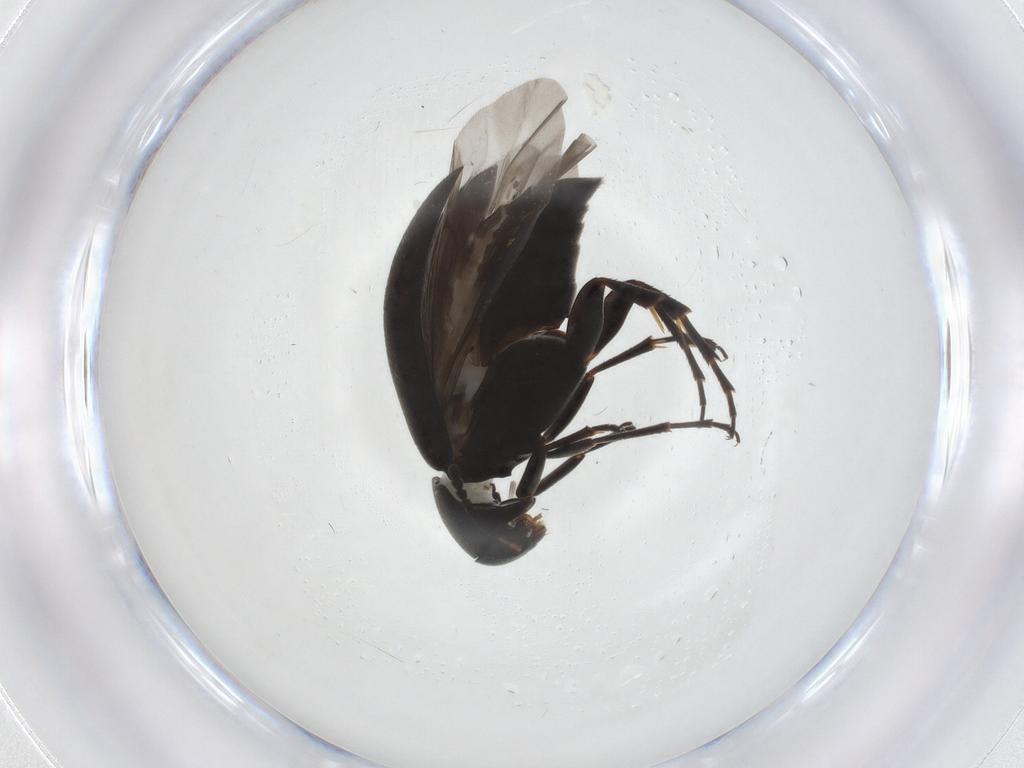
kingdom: Animalia
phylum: Arthropoda
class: Insecta
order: Coleoptera
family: Scraptiidae
